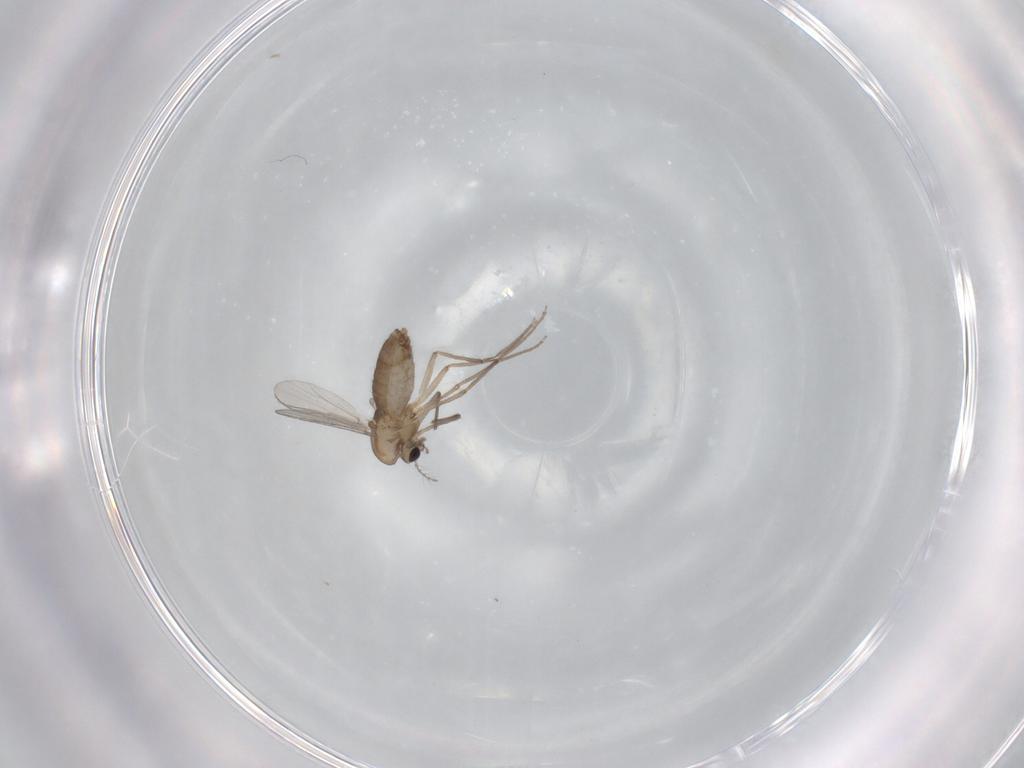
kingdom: Animalia
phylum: Arthropoda
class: Insecta
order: Diptera
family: Chironomidae
